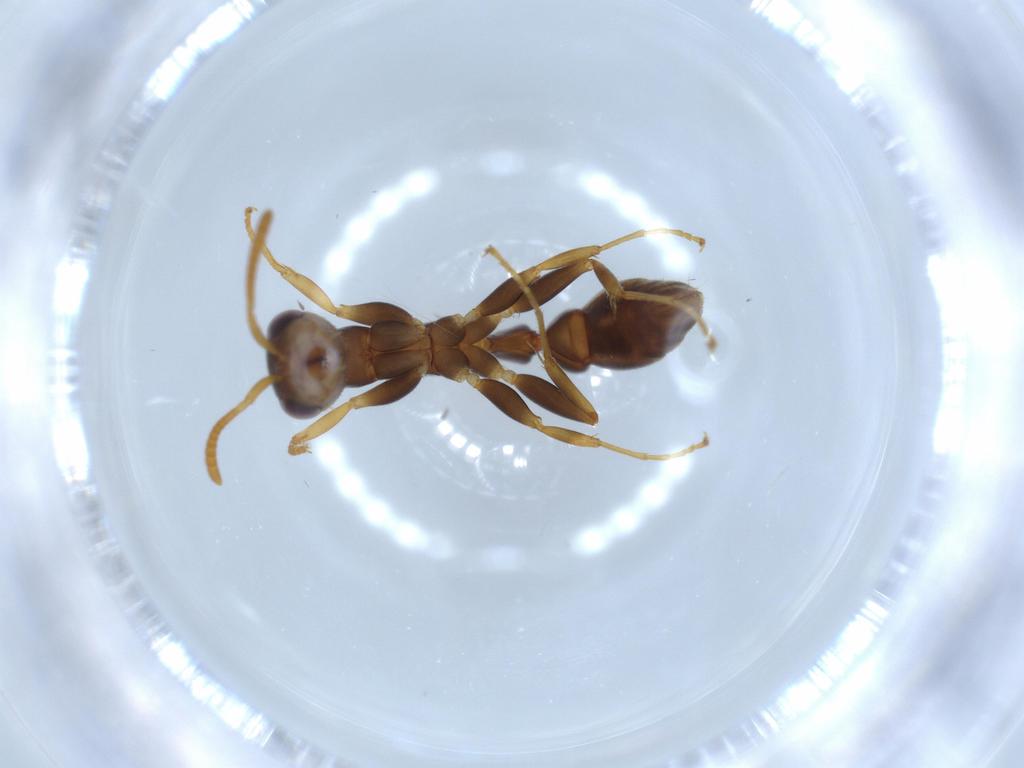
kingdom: Animalia
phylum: Arthropoda
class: Insecta
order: Hymenoptera
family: Formicidae
